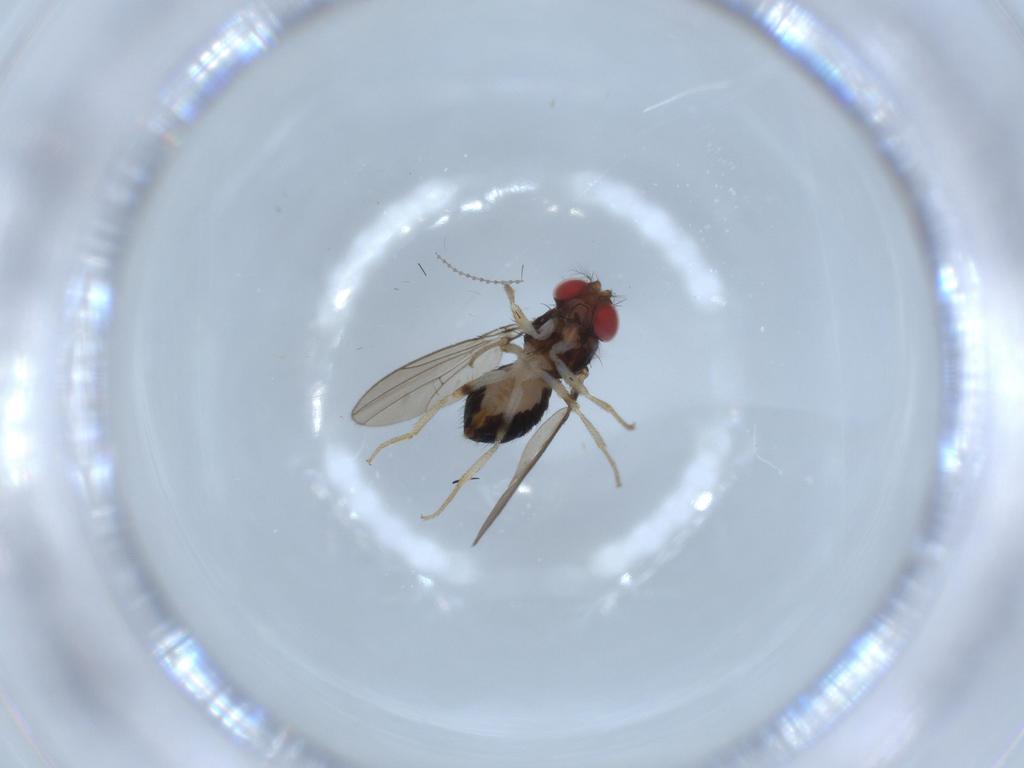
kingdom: Animalia
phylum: Arthropoda
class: Insecta
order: Diptera
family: Drosophilidae
